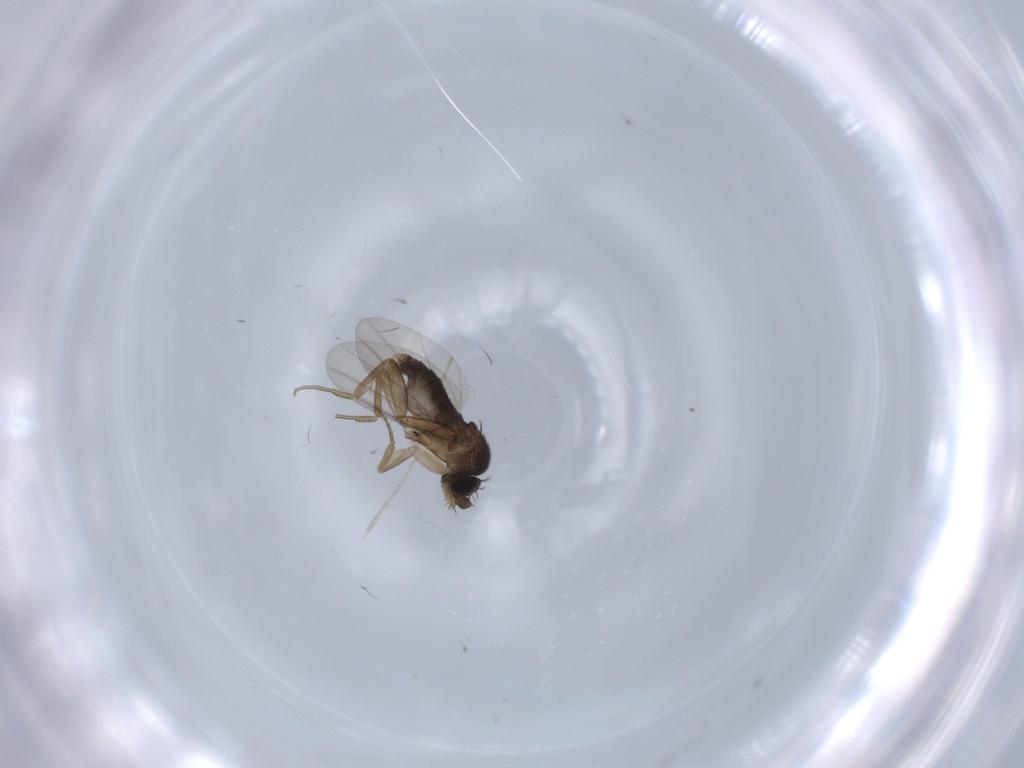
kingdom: Animalia
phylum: Arthropoda
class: Insecta
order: Diptera
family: Phoridae
